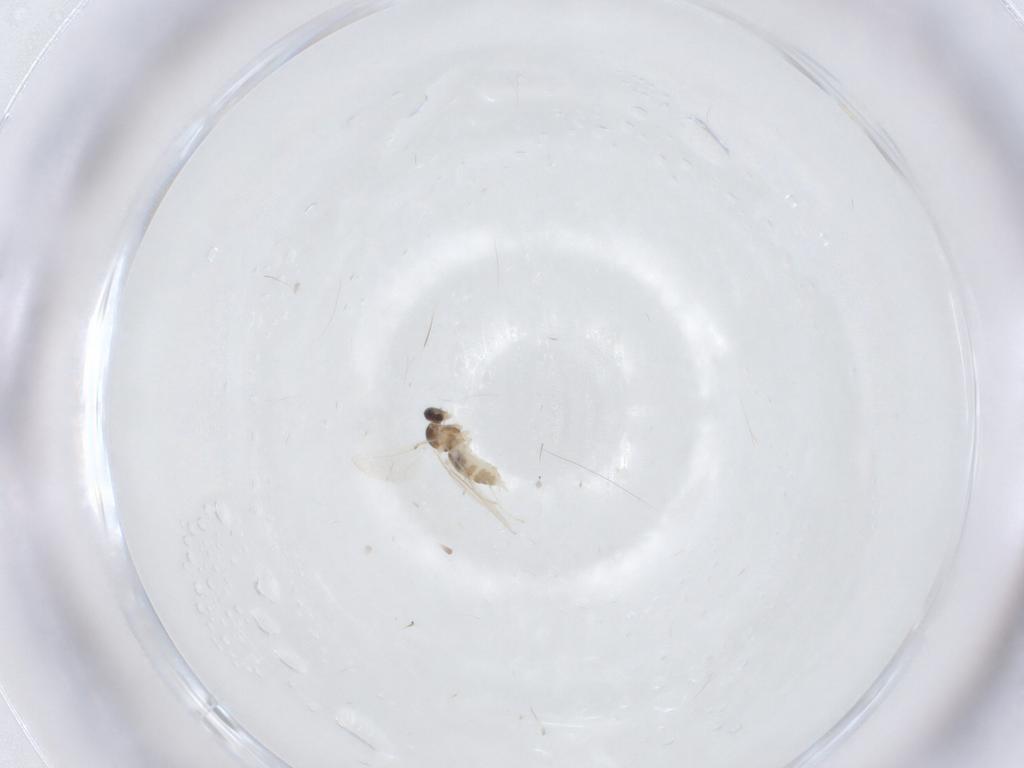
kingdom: Animalia
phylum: Arthropoda
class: Insecta
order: Diptera
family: Cecidomyiidae
